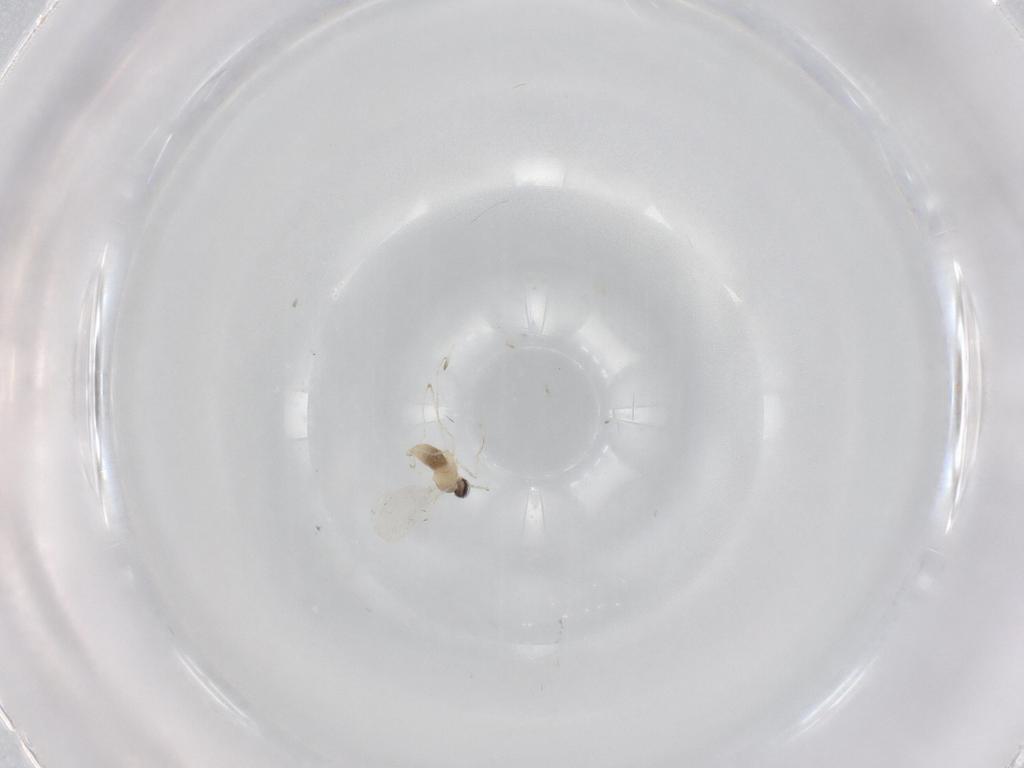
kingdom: Animalia
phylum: Arthropoda
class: Insecta
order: Diptera
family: Cecidomyiidae
